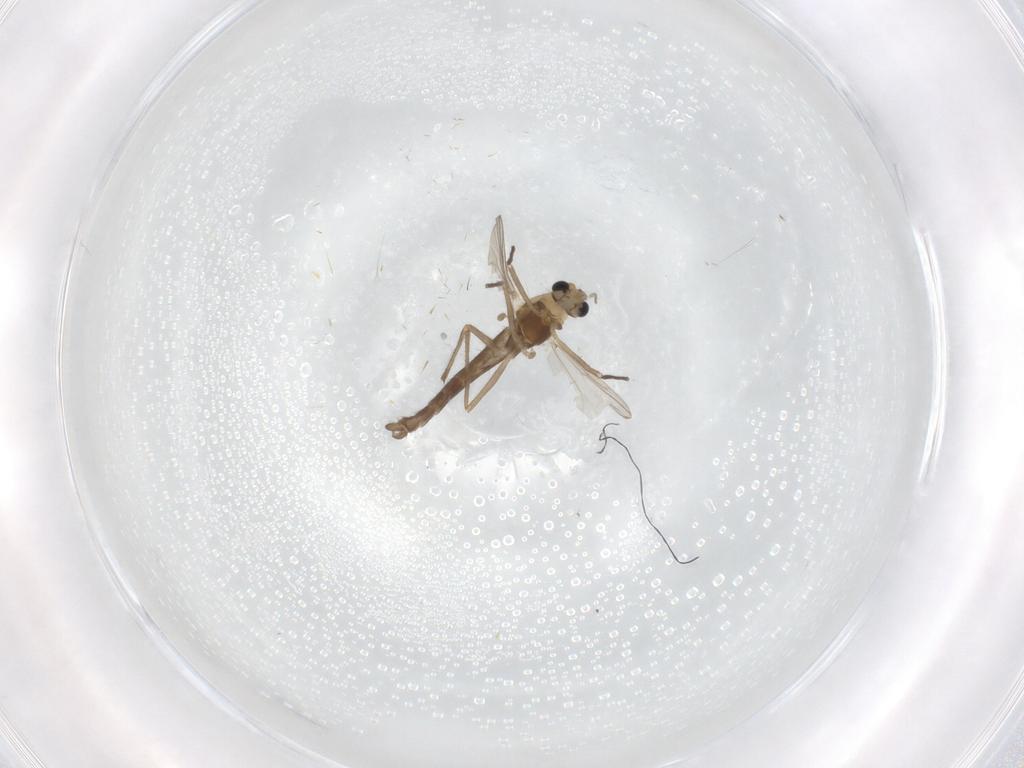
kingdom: Animalia
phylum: Arthropoda
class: Insecta
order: Diptera
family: Chironomidae
